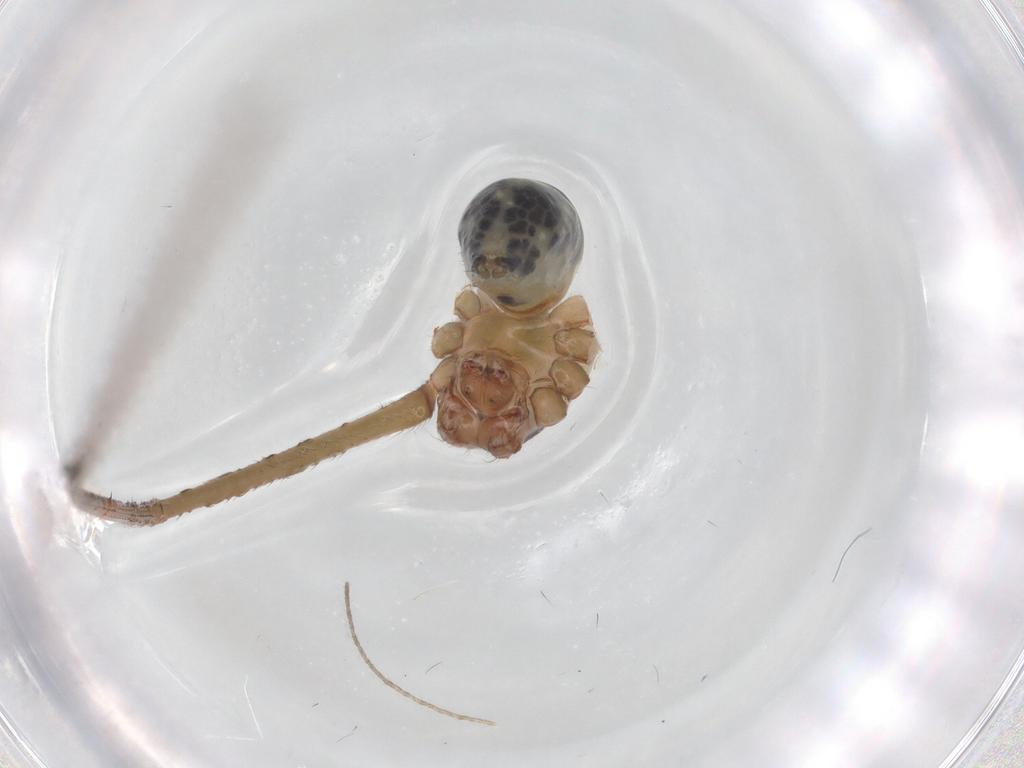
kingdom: Animalia
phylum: Arthropoda
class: Arachnida
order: Araneae
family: Pholcidae
